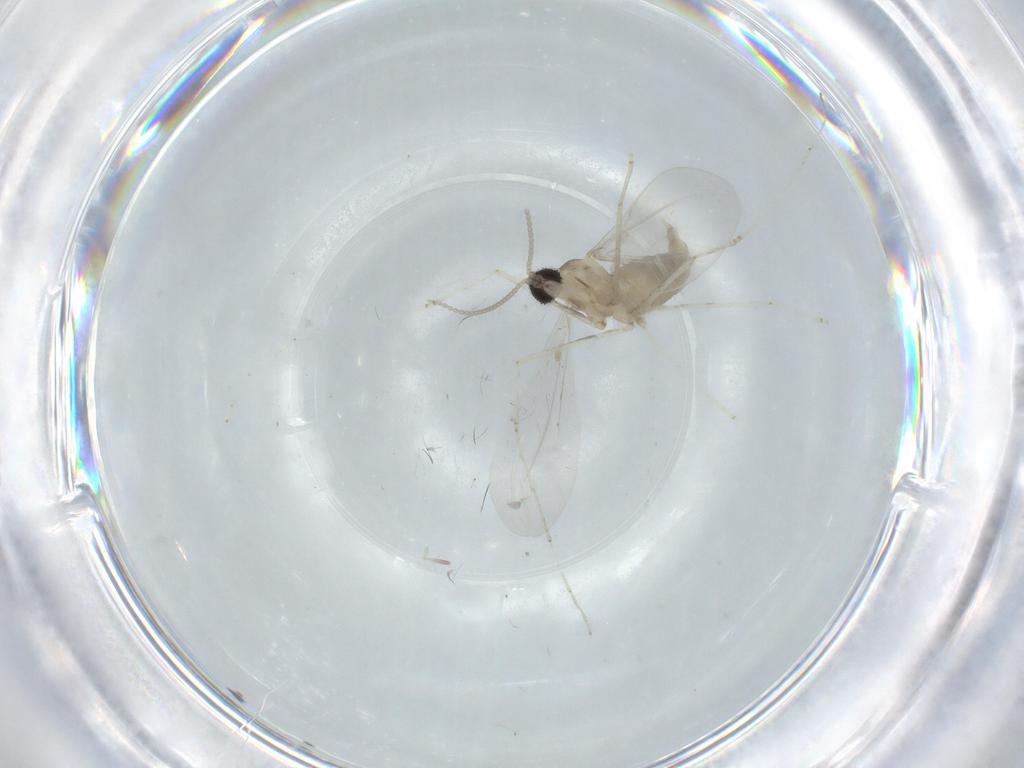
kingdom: Animalia
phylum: Arthropoda
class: Insecta
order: Diptera
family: Cecidomyiidae
